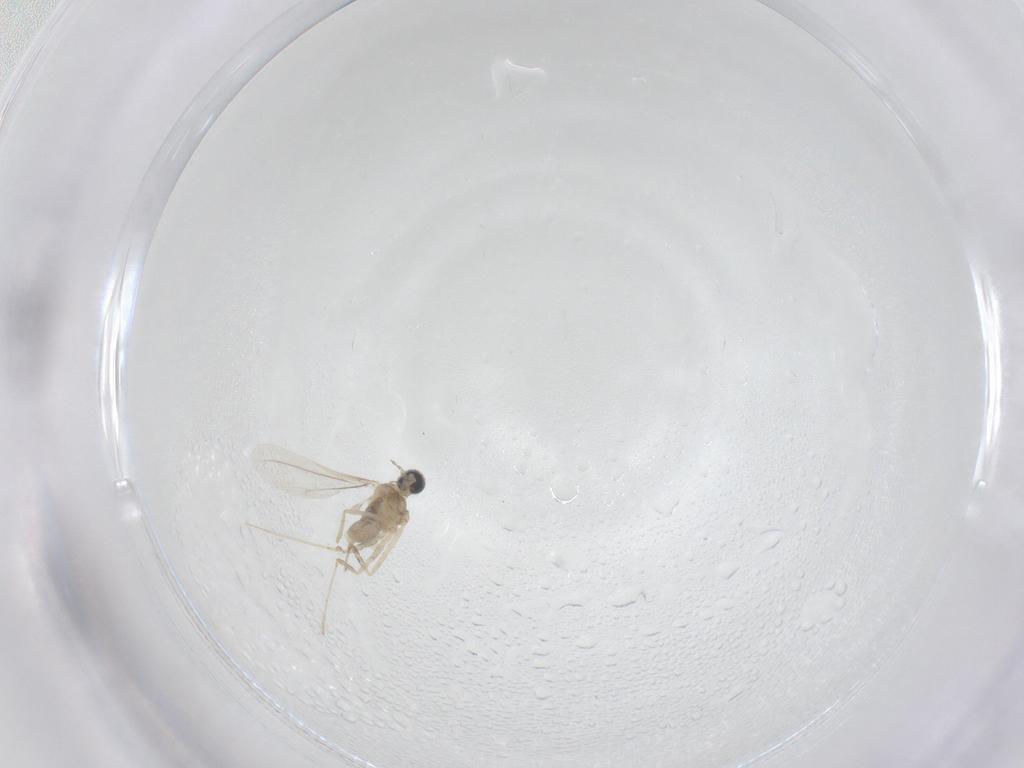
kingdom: Animalia
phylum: Arthropoda
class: Insecta
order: Diptera
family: Cecidomyiidae
